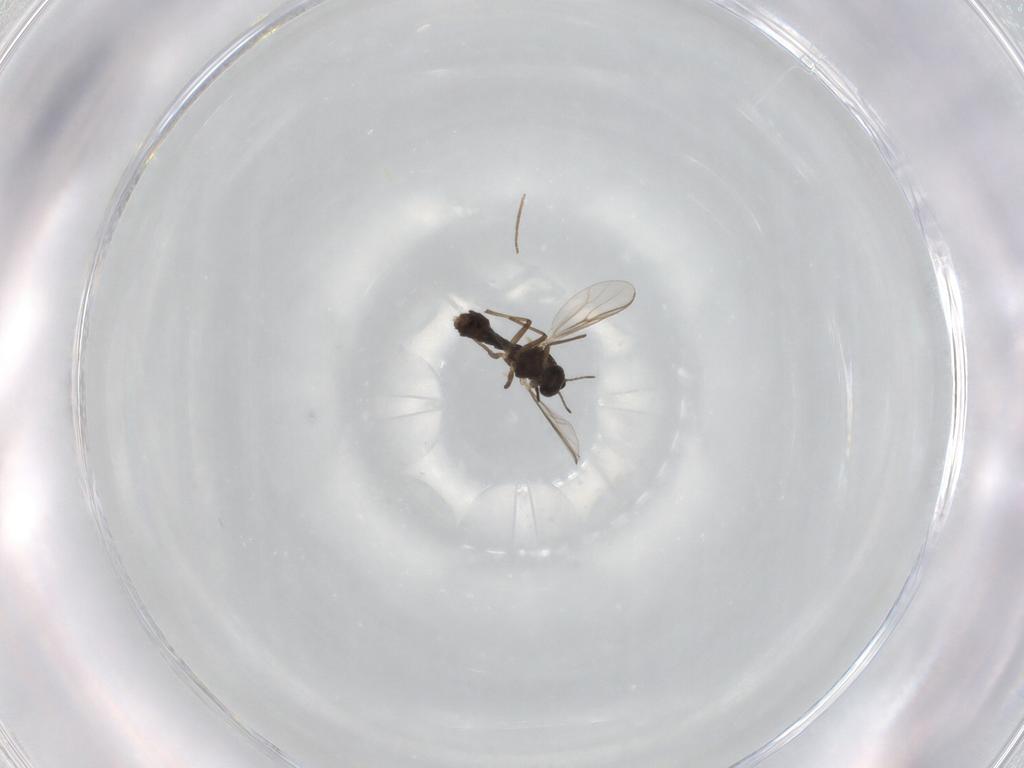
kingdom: Animalia
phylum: Arthropoda
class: Insecta
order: Diptera
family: Chironomidae
